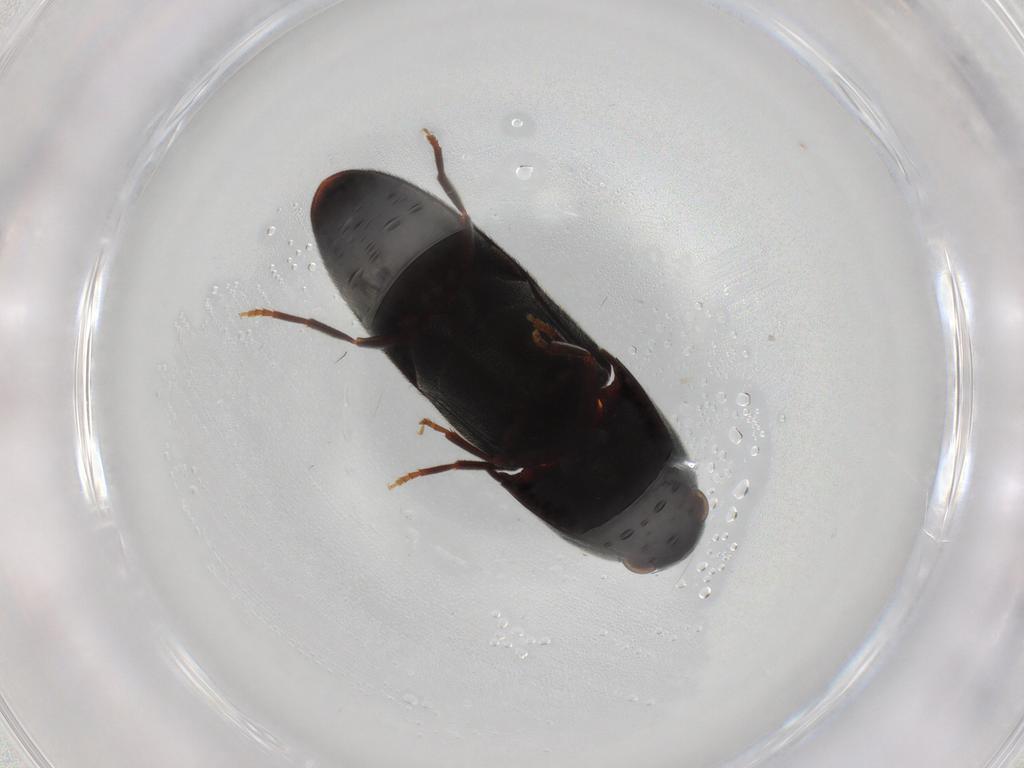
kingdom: Animalia
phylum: Arthropoda
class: Insecta
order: Coleoptera
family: Eucnemidae
